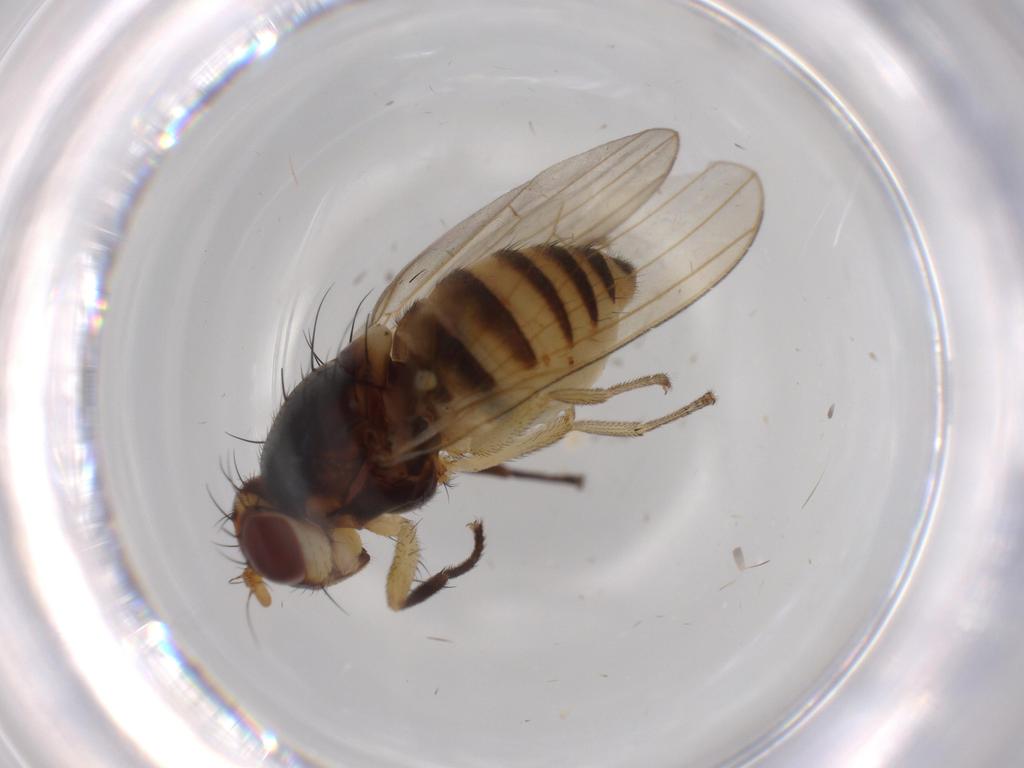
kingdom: Animalia
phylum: Arthropoda
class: Insecta
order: Diptera
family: Lauxaniidae
